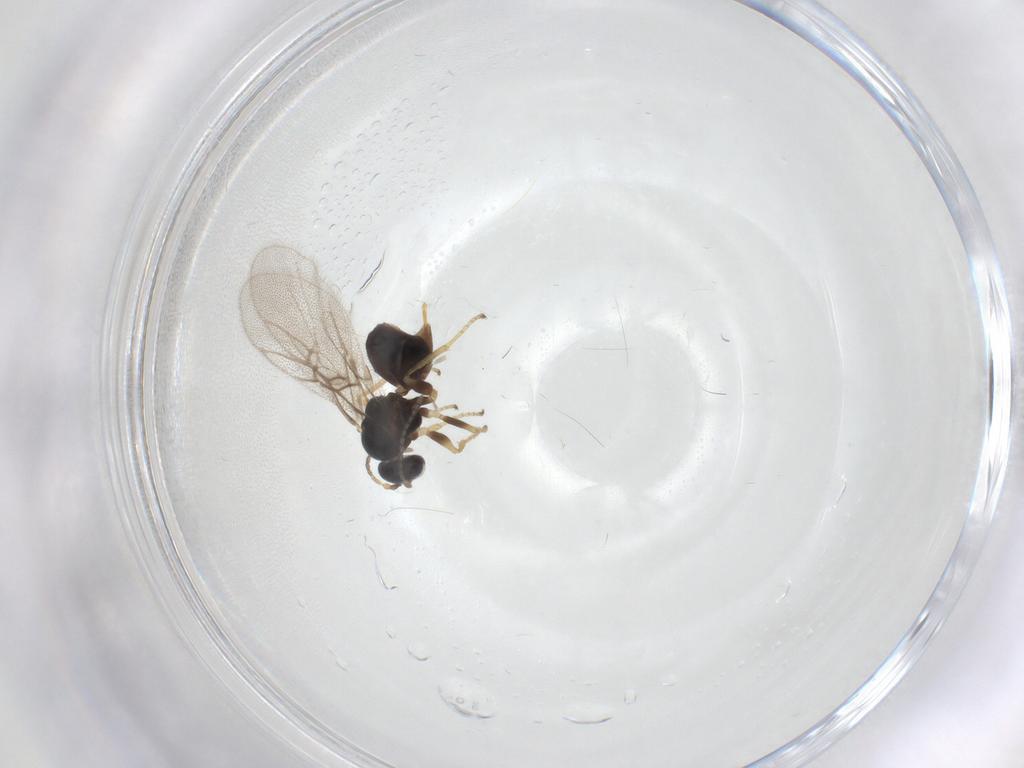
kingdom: Animalia
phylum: Arthropoda
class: Insecta
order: Hymenoptera
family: Cynipidae
